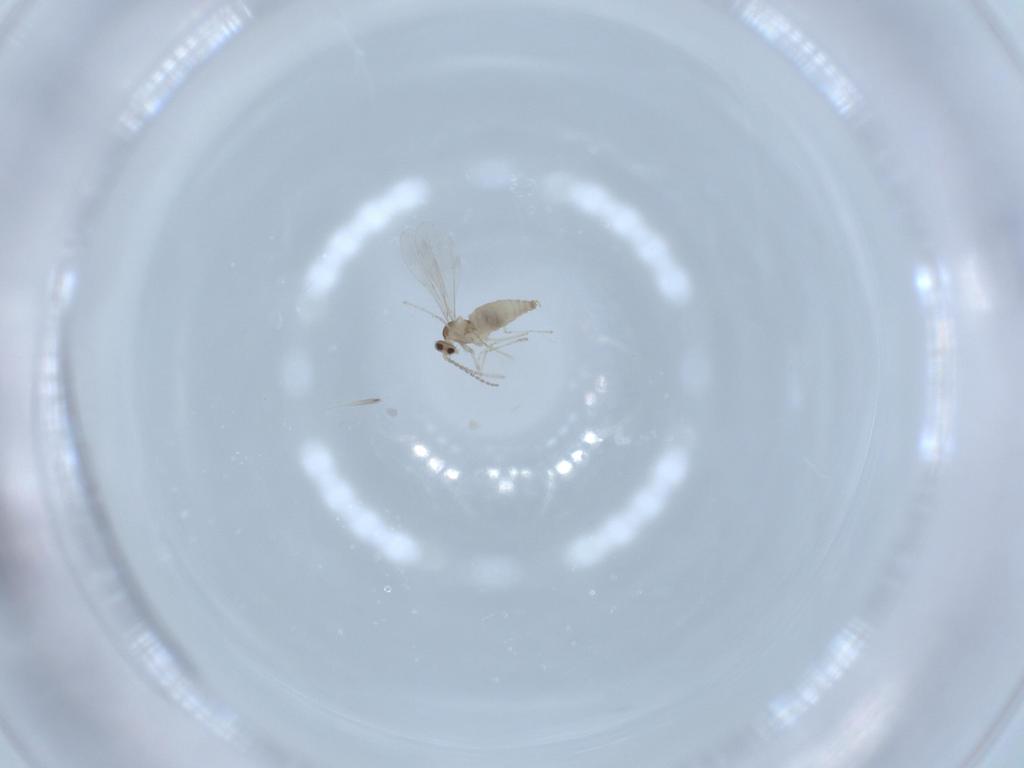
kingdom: Animalia
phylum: Arthropoda
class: Insecta
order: Diptera
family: Cecidomyiidae
